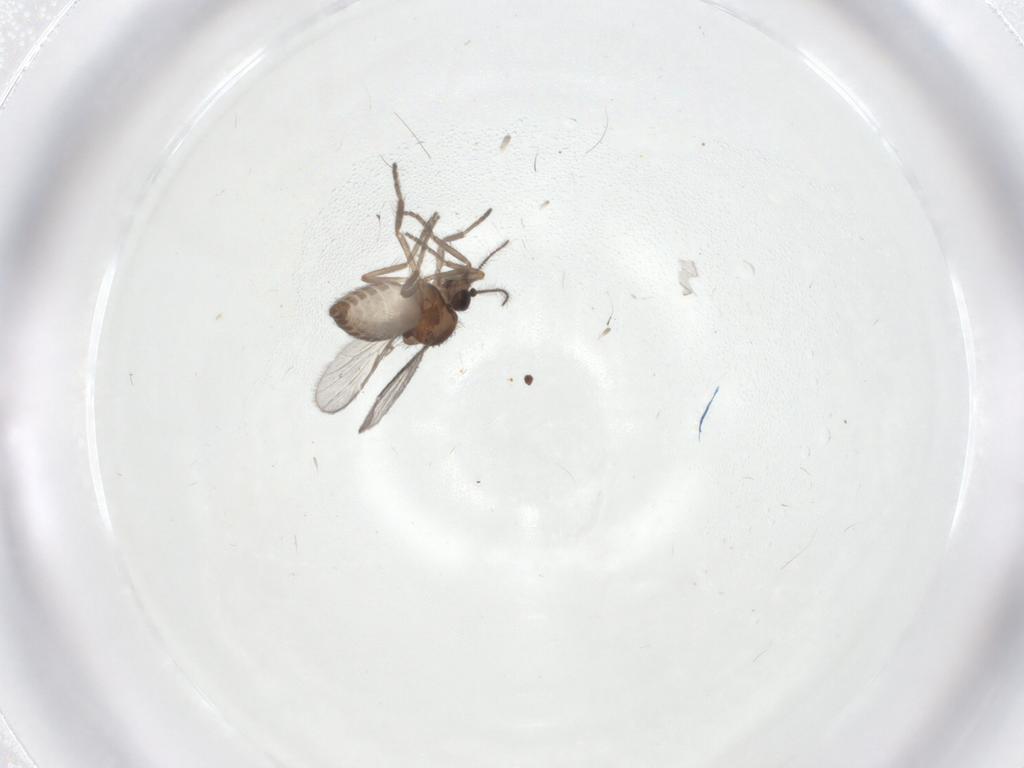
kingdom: Animalia
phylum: Arthropoda
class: Insecta
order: Diptera
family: Ceratopogonidae
